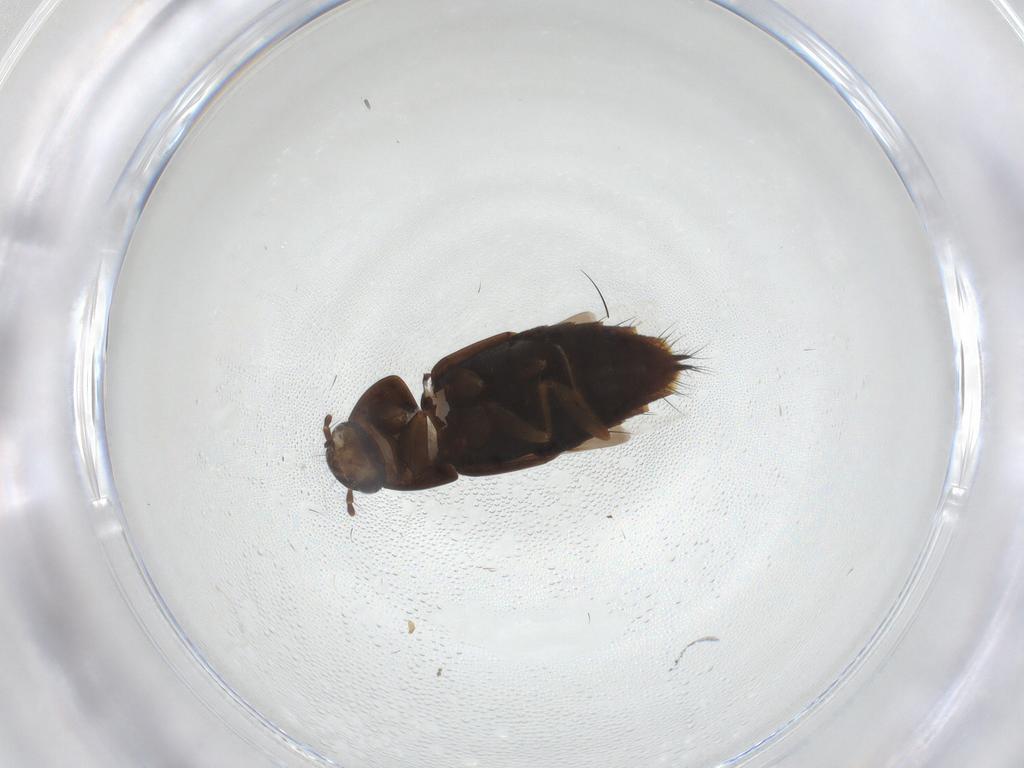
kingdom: Animalia
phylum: Arthropoda
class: Insecta
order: Coleoptera
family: Staphylinidae
